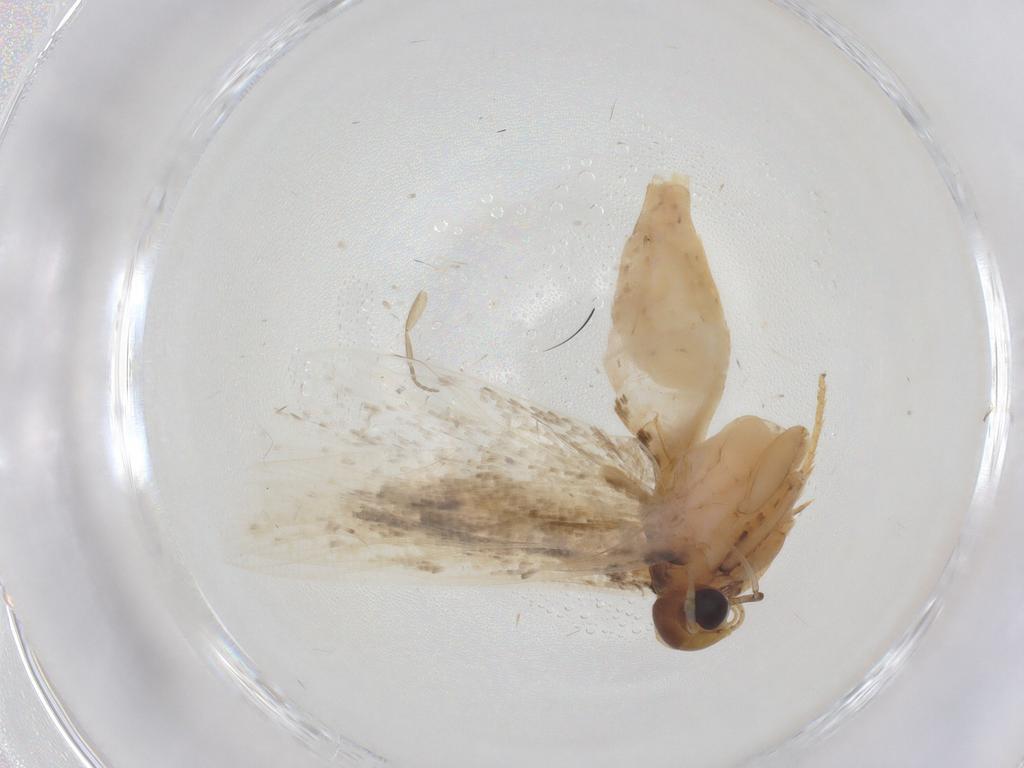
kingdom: Animalia
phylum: Arthropoda
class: Insecta
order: Lepidoptera
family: Gelechiidae
